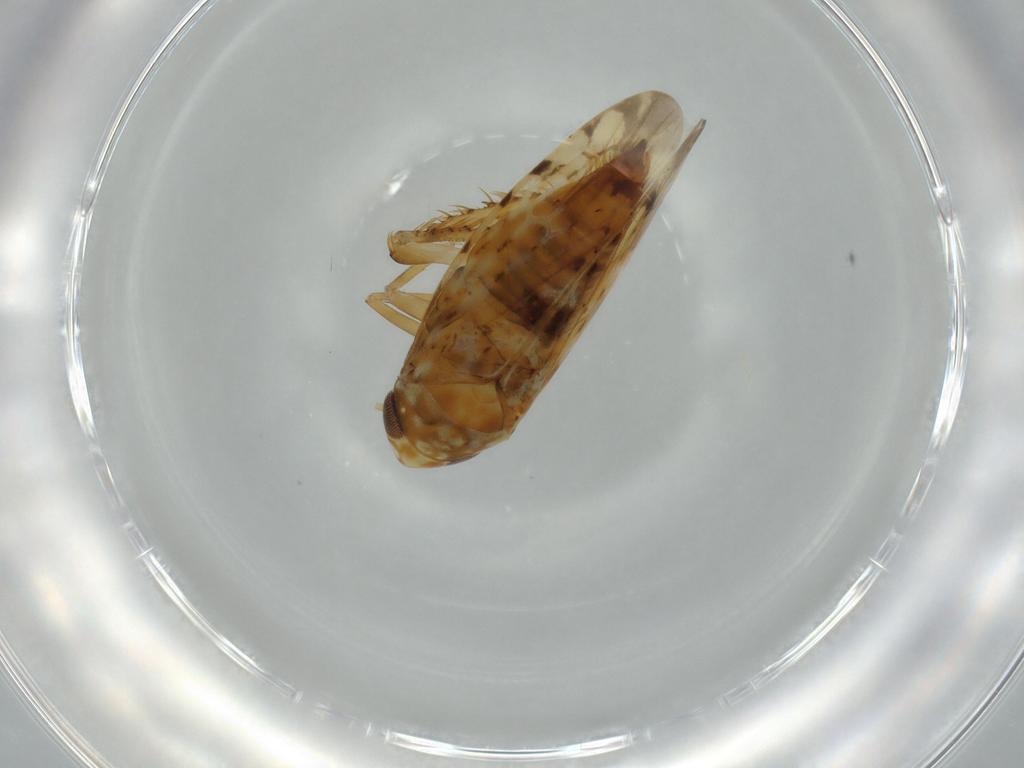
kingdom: Animalia
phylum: Arthropoda
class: Insecta
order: Hemiptera
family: Cicadellidae
